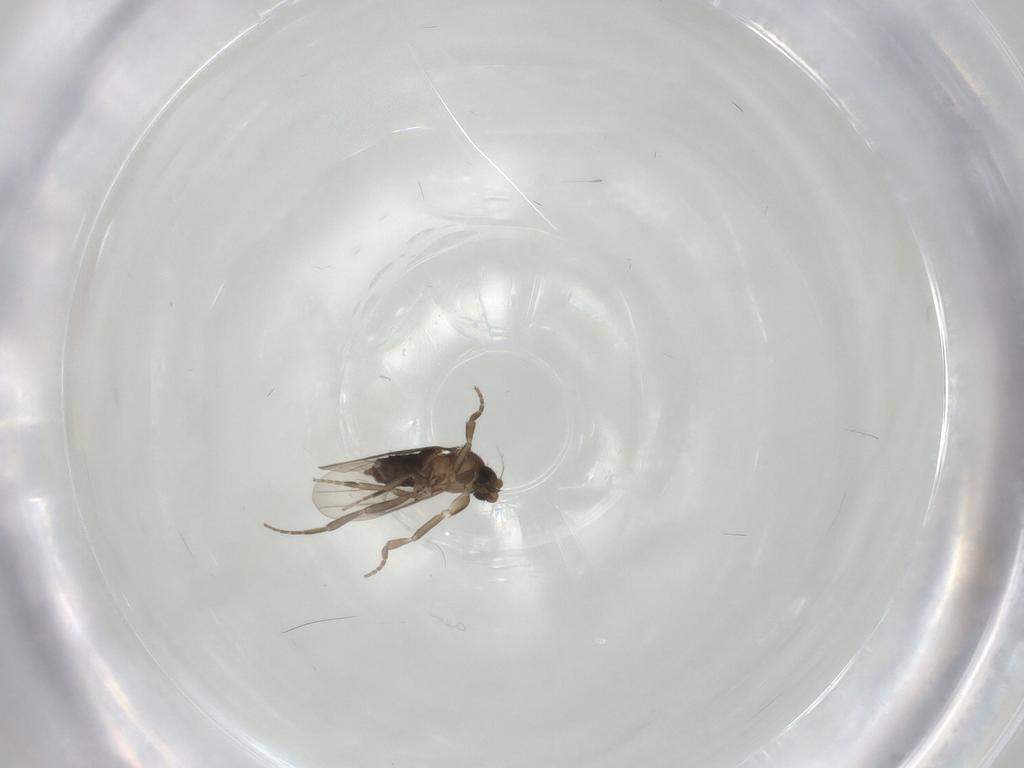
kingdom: Animalia
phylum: Arthropoda
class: Insecta
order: Diptera
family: Phoridae
